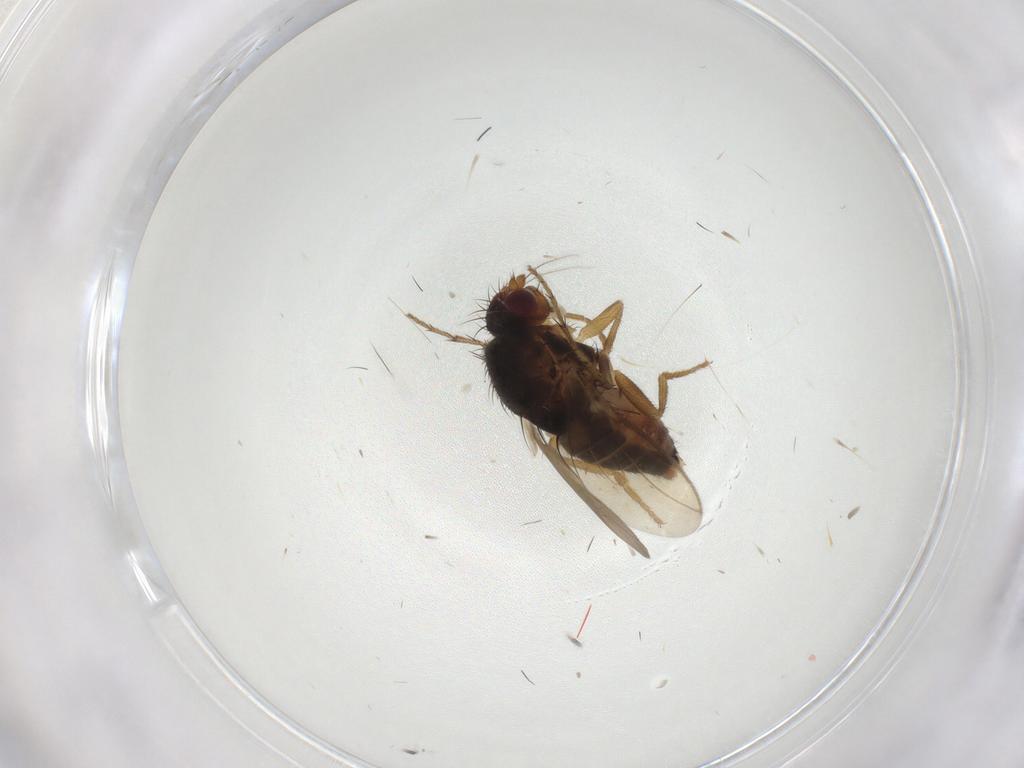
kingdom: Animalia
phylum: Arthropoda
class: Insecta
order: Diptera
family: Sphaeroceridae
